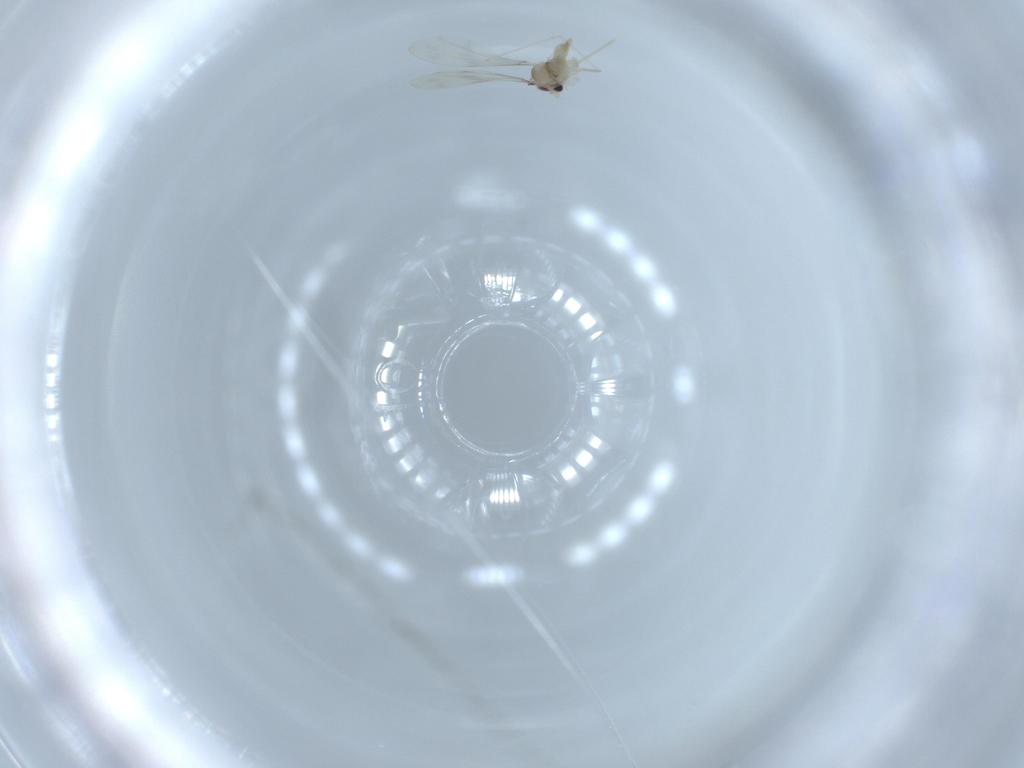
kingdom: Animalia
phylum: Arthropoda
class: Insecta
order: Diptera
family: Cecidomyiidae
